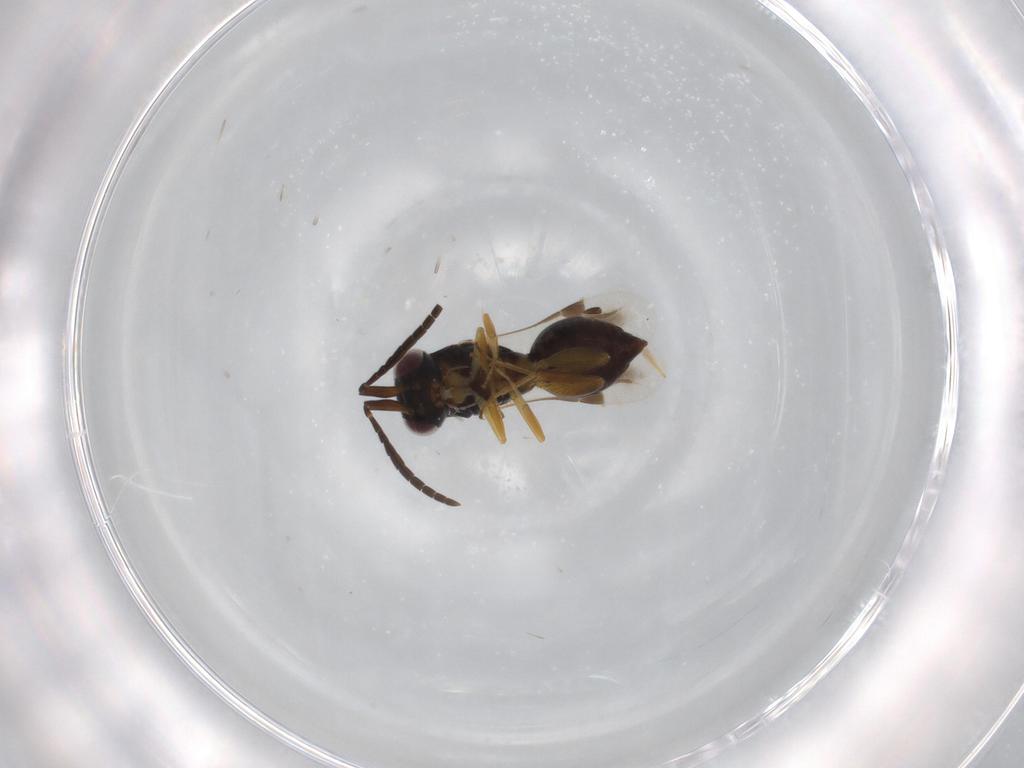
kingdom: Animalia
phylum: Arthropoda
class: Insecta
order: Hymenoptera
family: Megaspilidae
